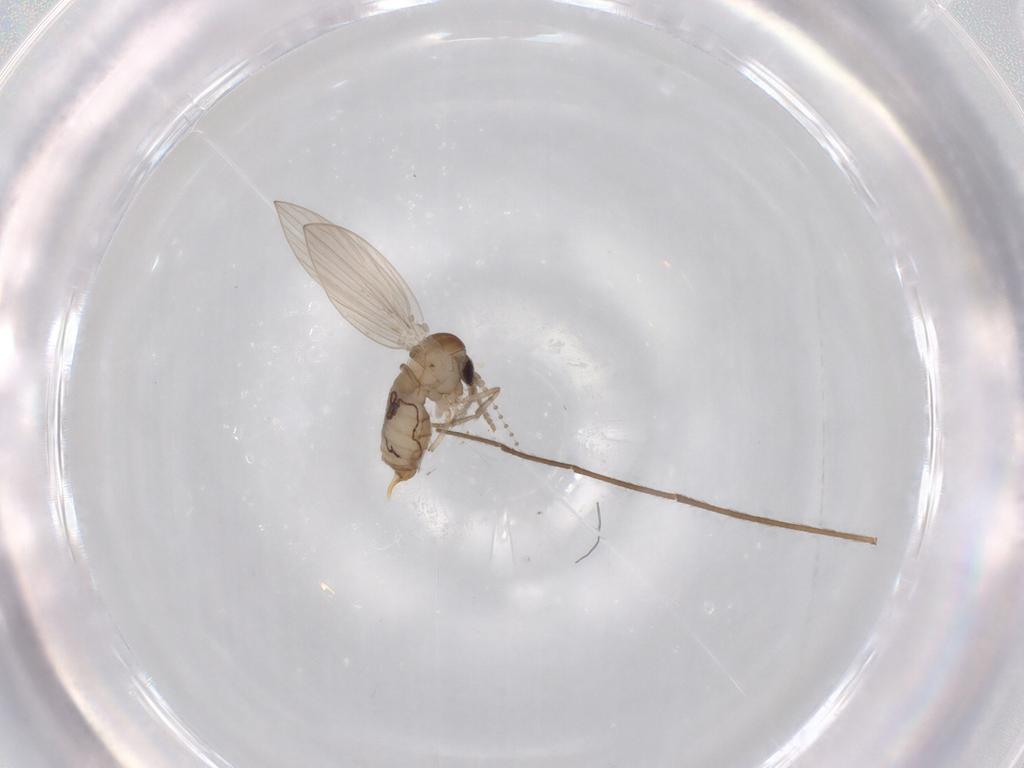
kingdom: Animalia
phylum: Arthropoda
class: Insecta
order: Diptera
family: Psychodidae
